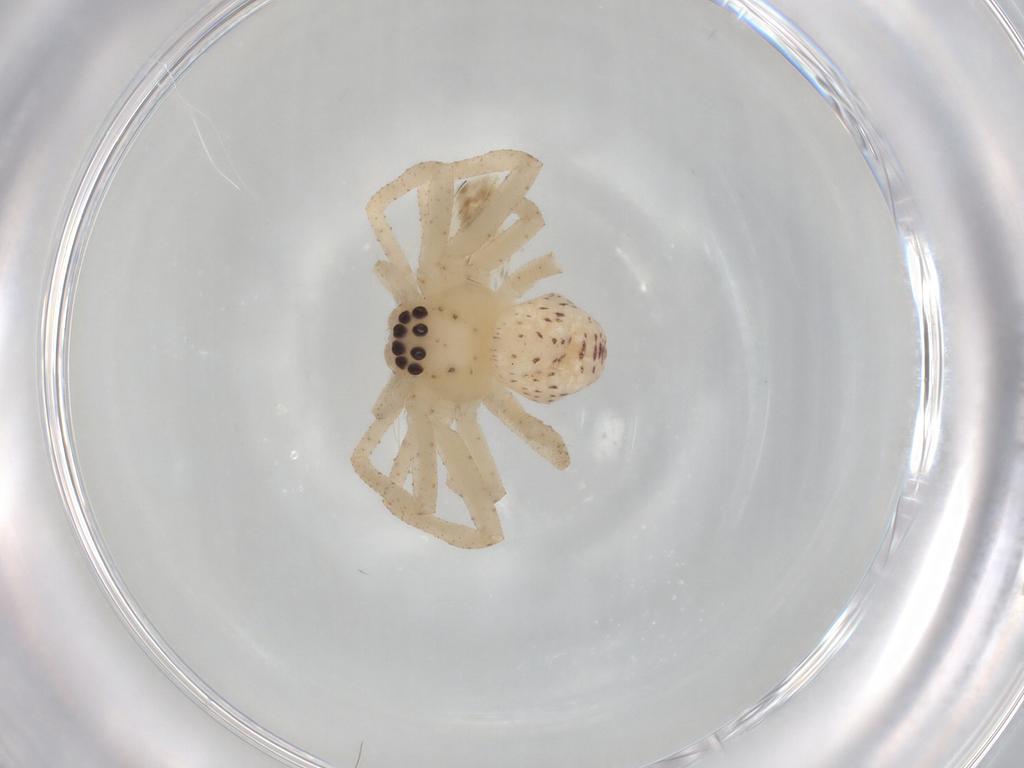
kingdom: Animalia
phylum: Arthropoda
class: Arachnida
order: Araneae
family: Sparassidae
